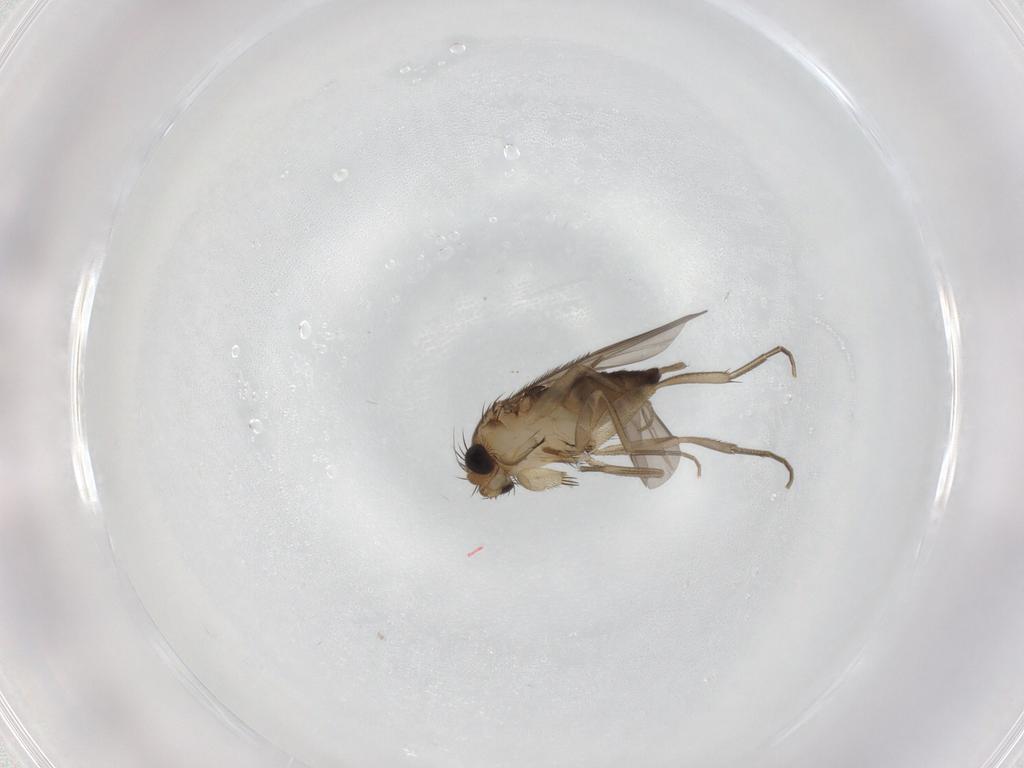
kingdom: Animalia
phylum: Arthropoda
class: Insecta
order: Diptera
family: Phoridae
